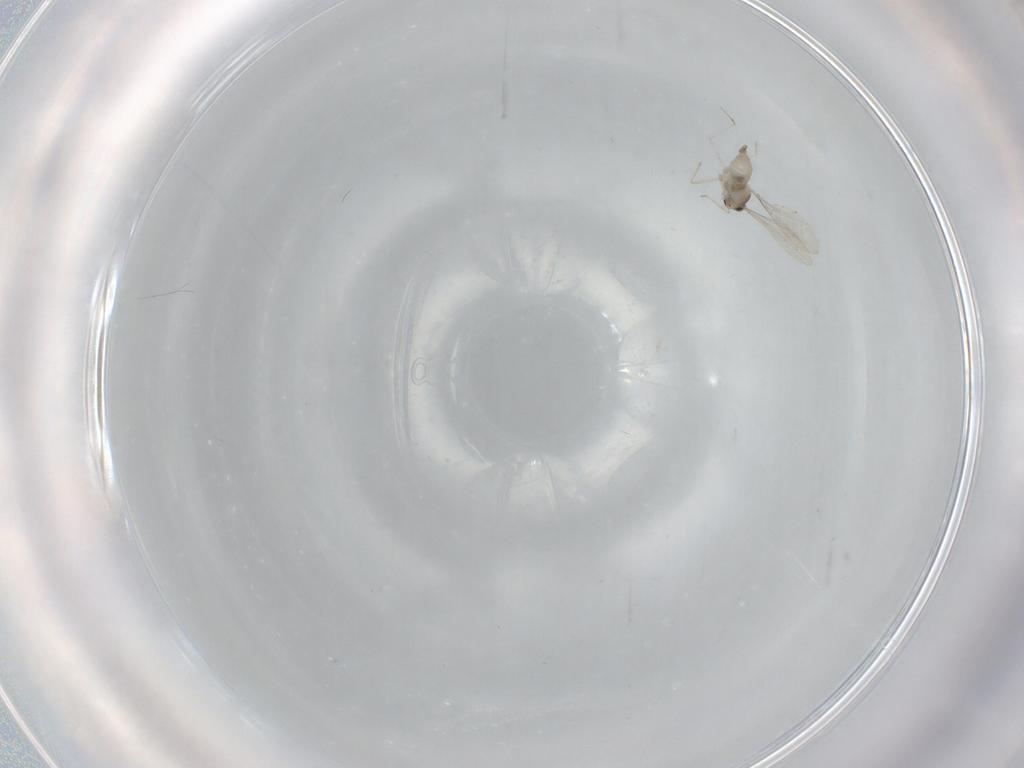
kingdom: Animalia
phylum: Arthropoda
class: Insecta
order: Diptera
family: Cecidomyiidae
